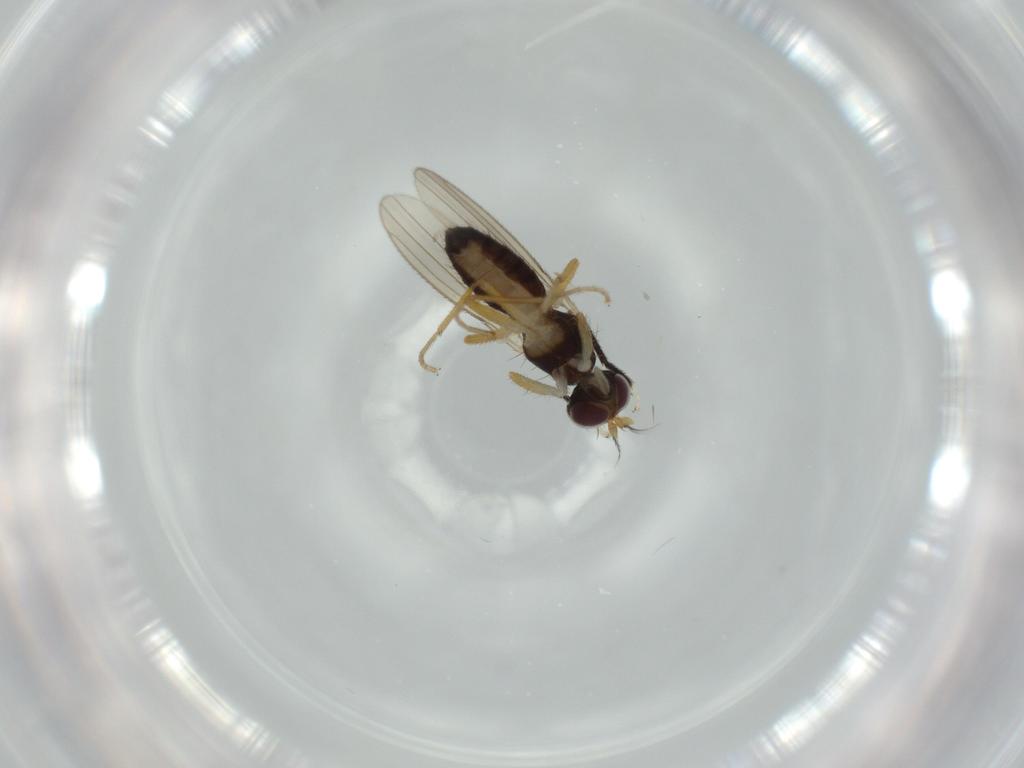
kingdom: Animalia
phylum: Arthropoda
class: Insecta
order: Diptera
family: Anthomyzidae
